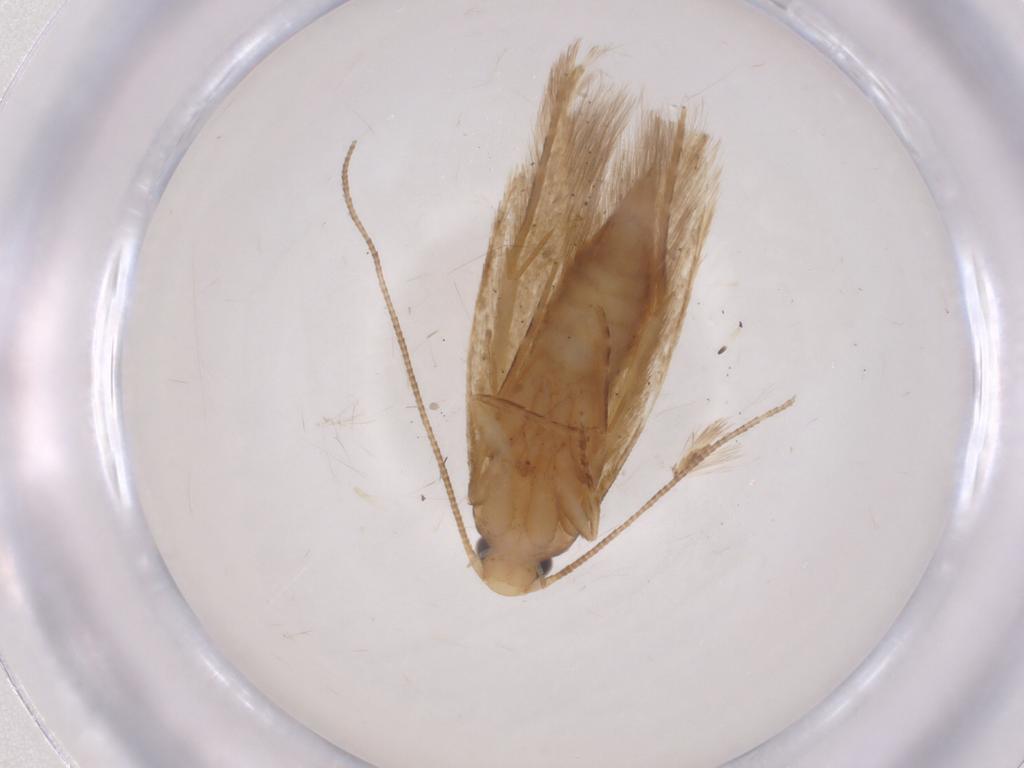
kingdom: Animalia
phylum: Arthropoda
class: Insecta
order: Lepidoptera
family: Tineidae
